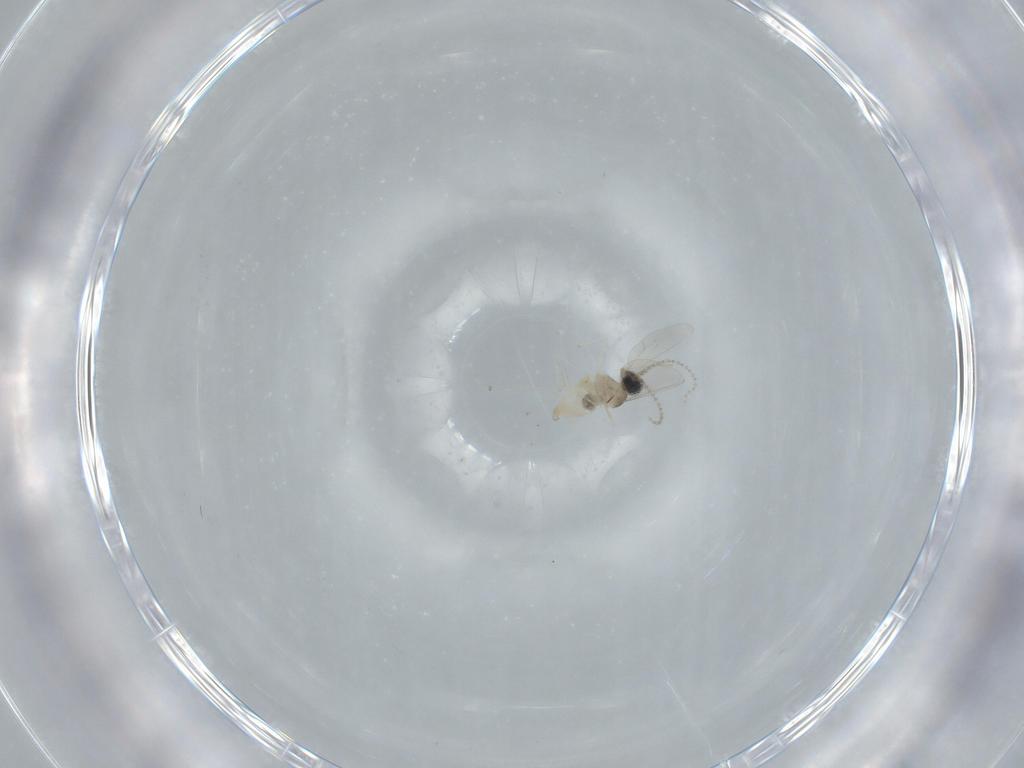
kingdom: Animalia
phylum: Arthropoda
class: Insecta
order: Diptera
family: Cecidomyiidae
